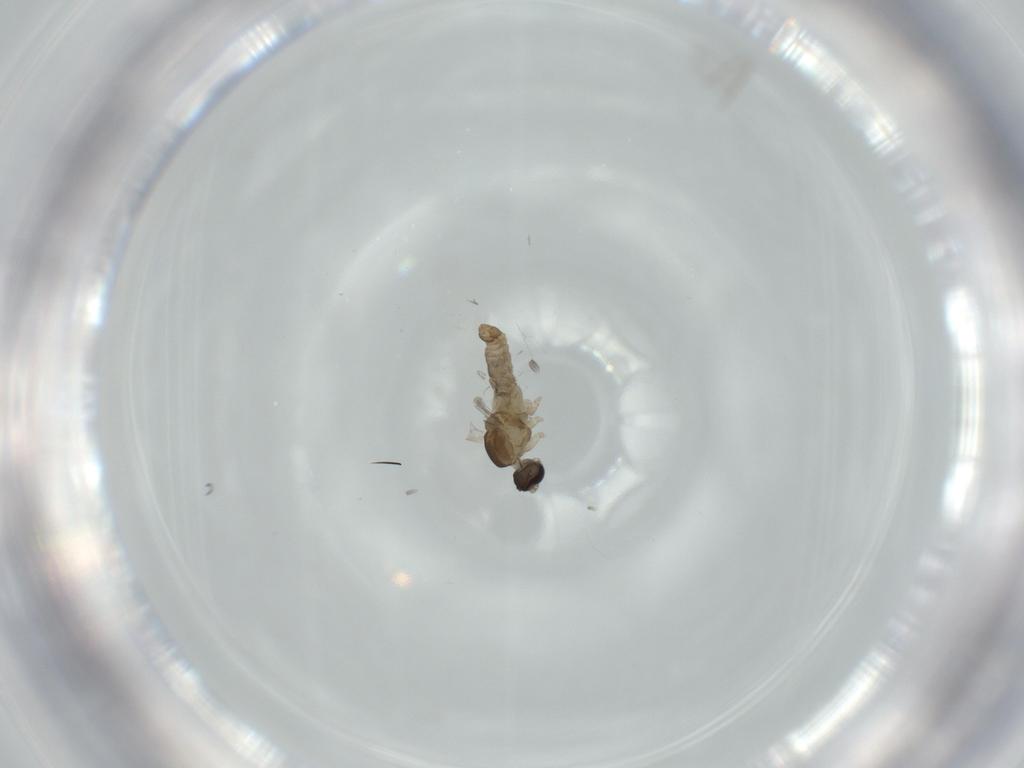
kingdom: Animalia
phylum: Arthropoda
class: Insecta
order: Diptera
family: Cecidomyiidae
